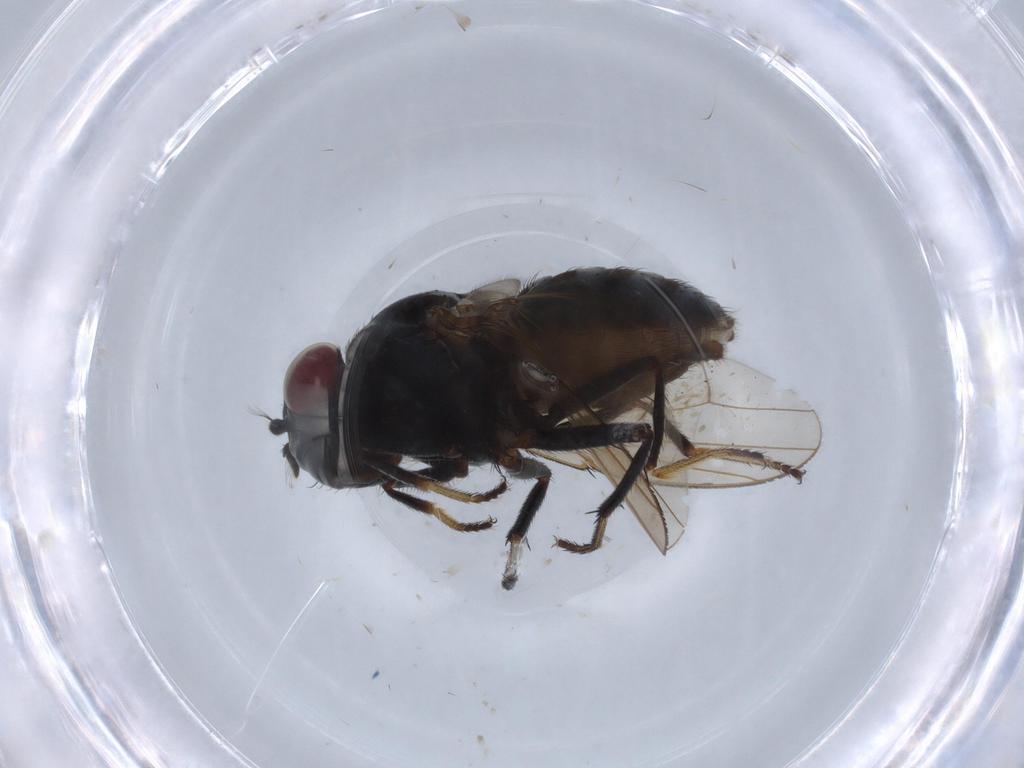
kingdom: Animalia
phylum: Arthropoda
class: Insecta
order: Diptera
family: Ephydridae
